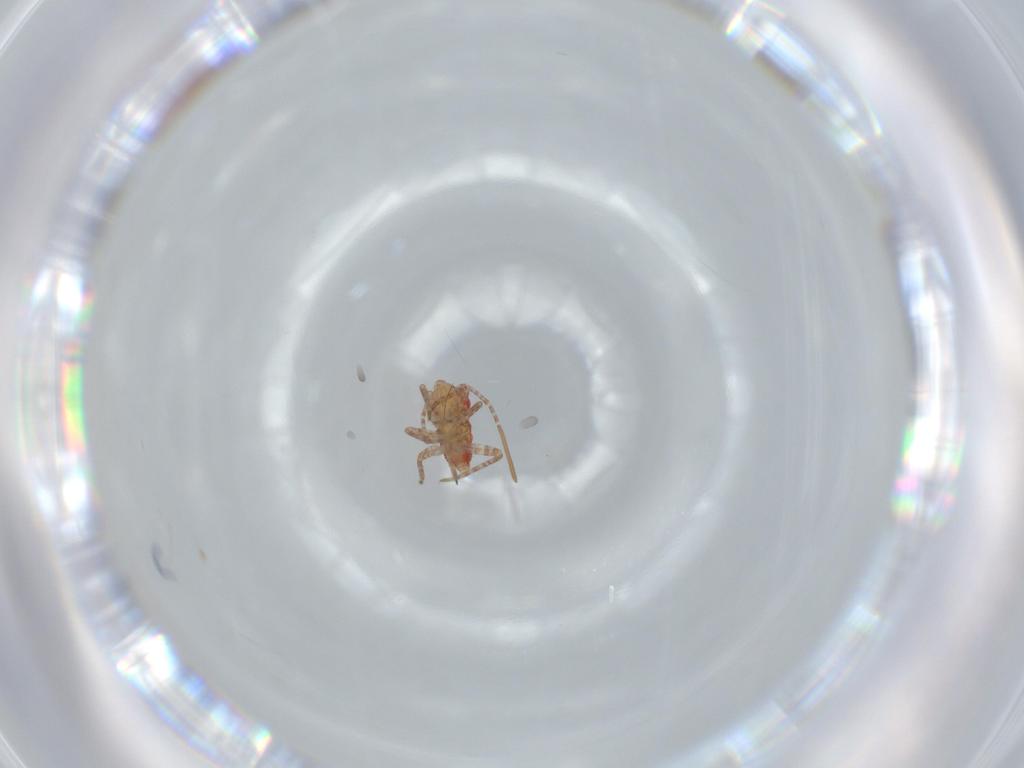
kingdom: Animalia
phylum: Arthropoda
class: Insecta
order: Hemiptera
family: Miridae
